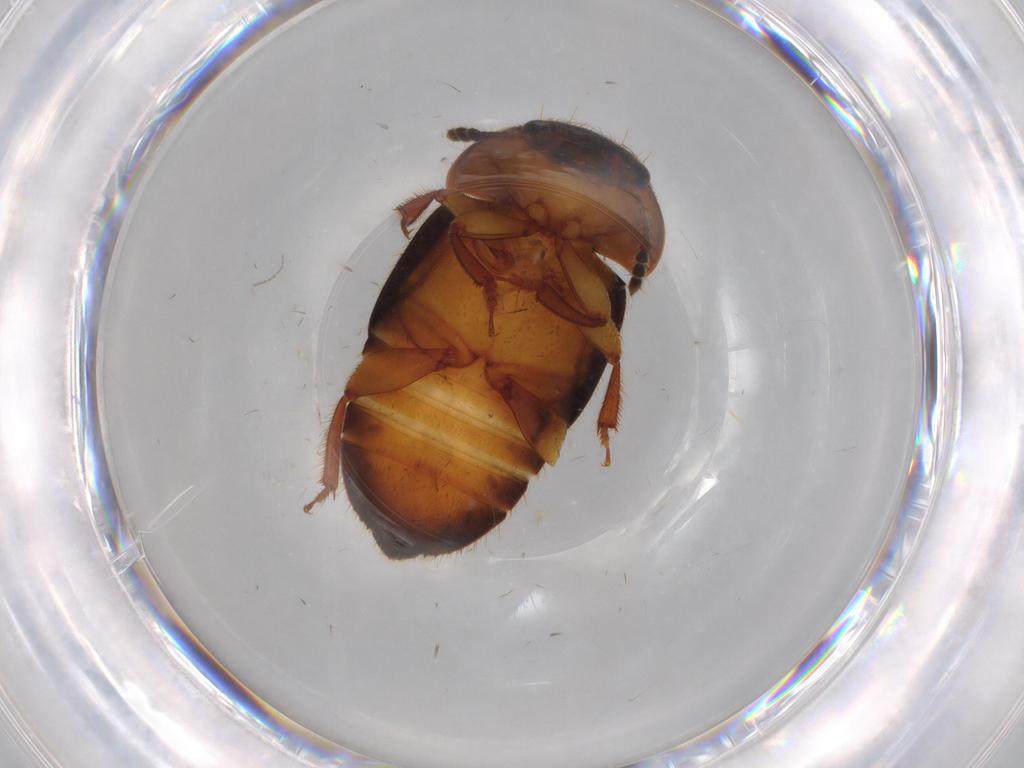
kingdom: Animalia
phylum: Arthropoda
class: Insecta
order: Coleoptera
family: Nitidulidae
